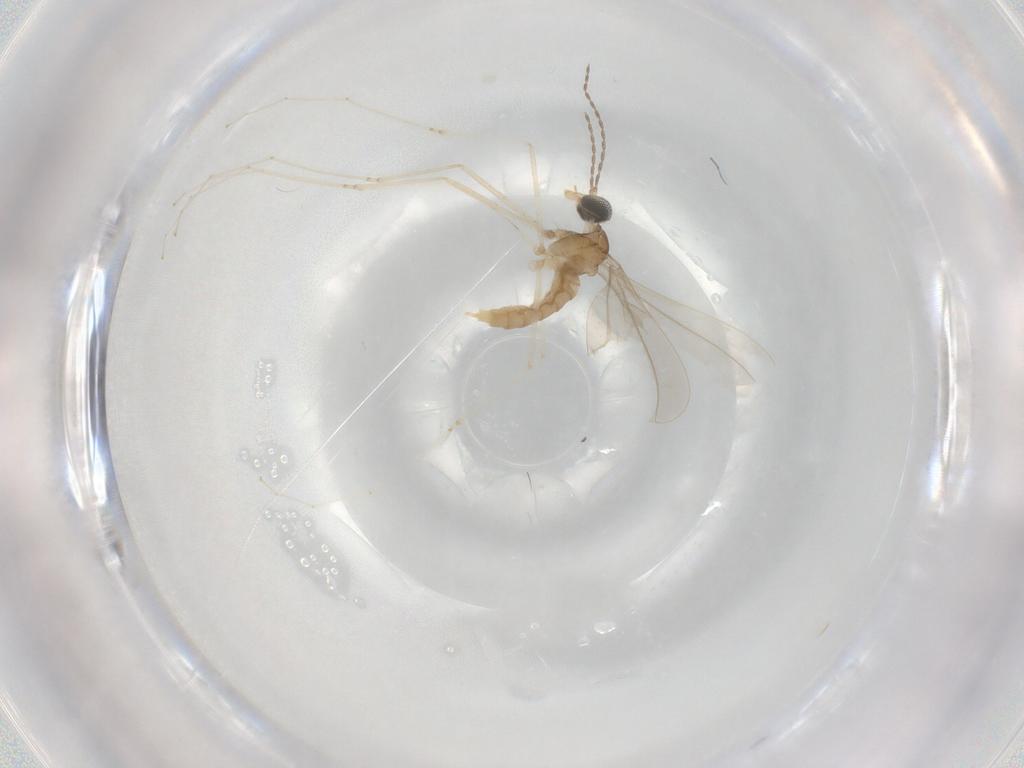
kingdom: Animalia
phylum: Arthropoda
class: Insecta
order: Diptera
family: Cecidomyiidae
